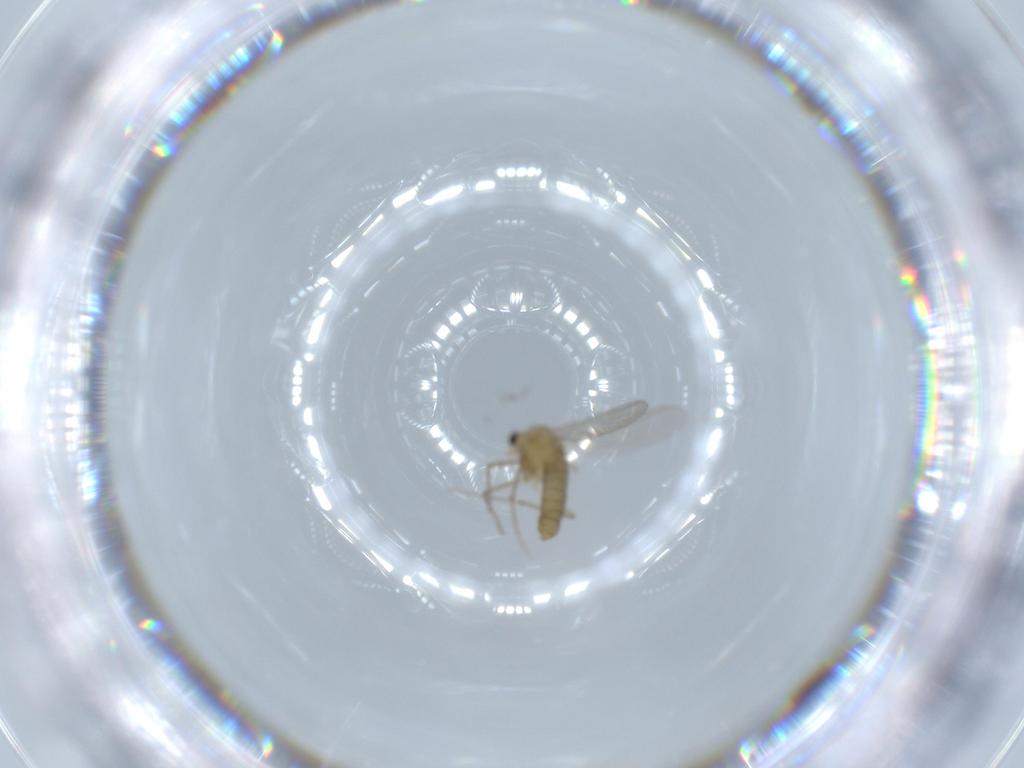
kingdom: Animalia
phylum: Arthropoda
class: Insecta
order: Diptera
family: Chironomidae
